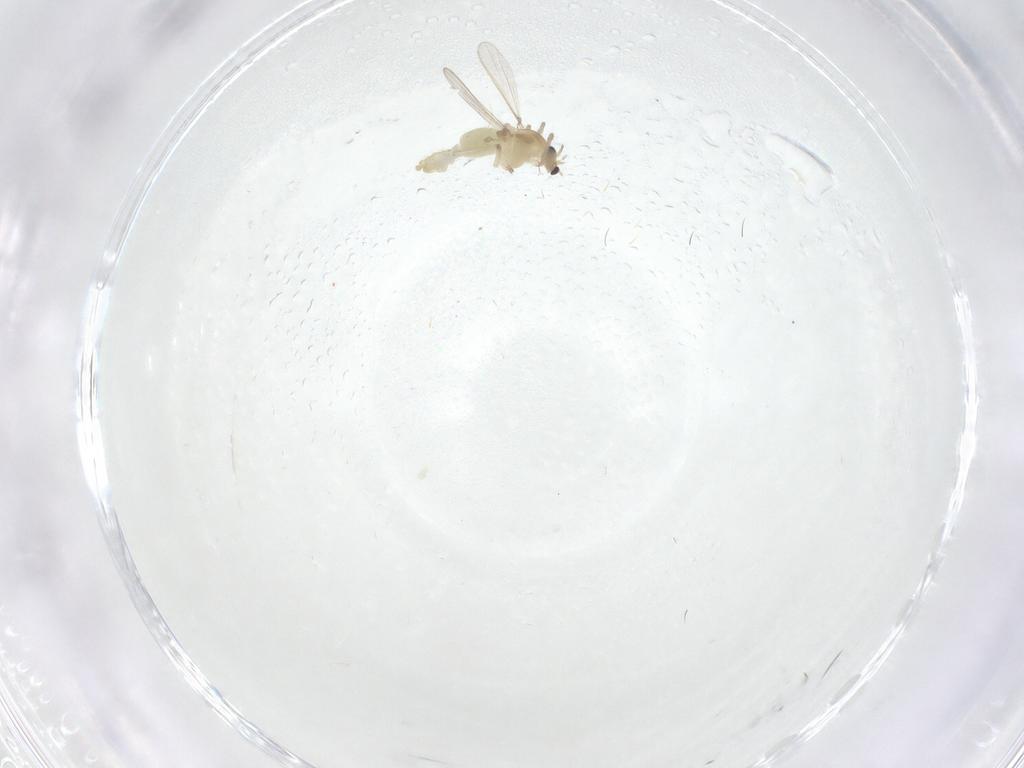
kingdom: Animalia
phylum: Arthropoda
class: Insecta
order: Diptera
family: Chironomidae
